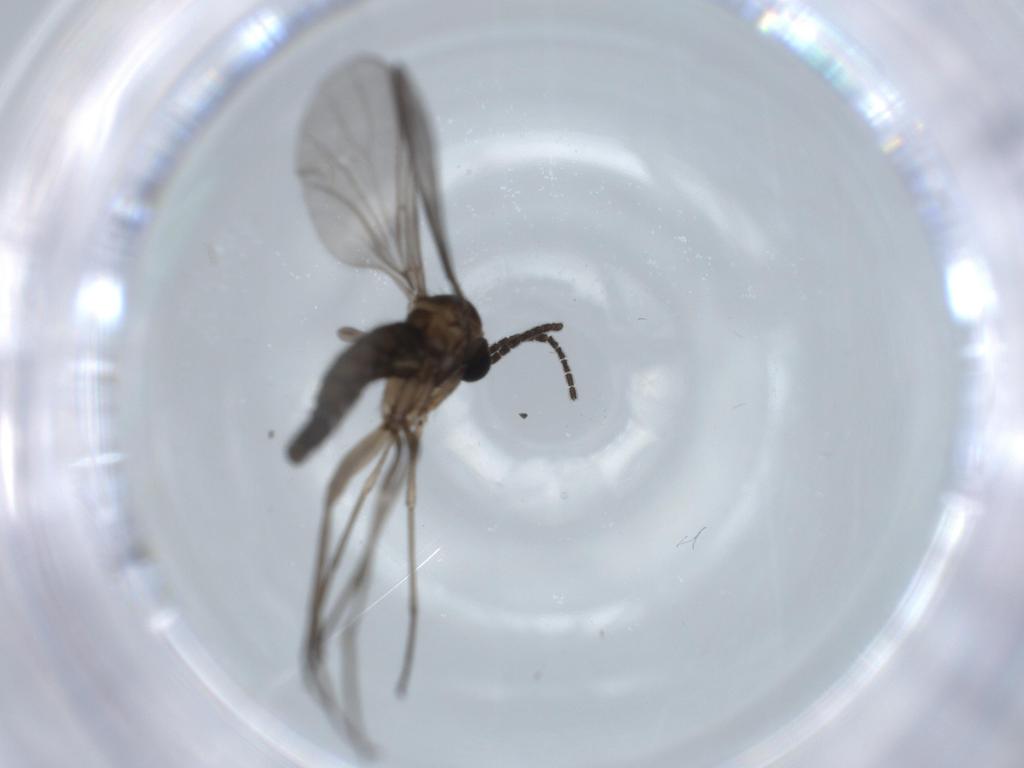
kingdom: Animalia
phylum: Arthropoda
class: Insecta
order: Diptera
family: Sciaridae
